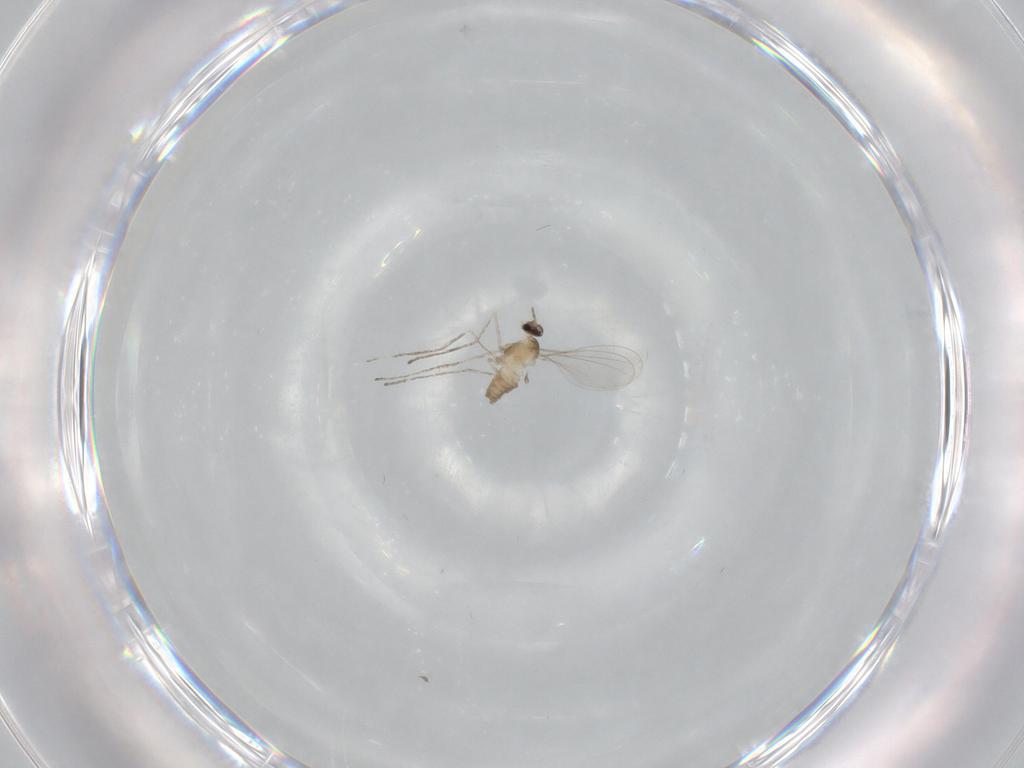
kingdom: Animalia
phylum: Arthropoda
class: Insecta
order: Diptera
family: Cecidomyiidae
